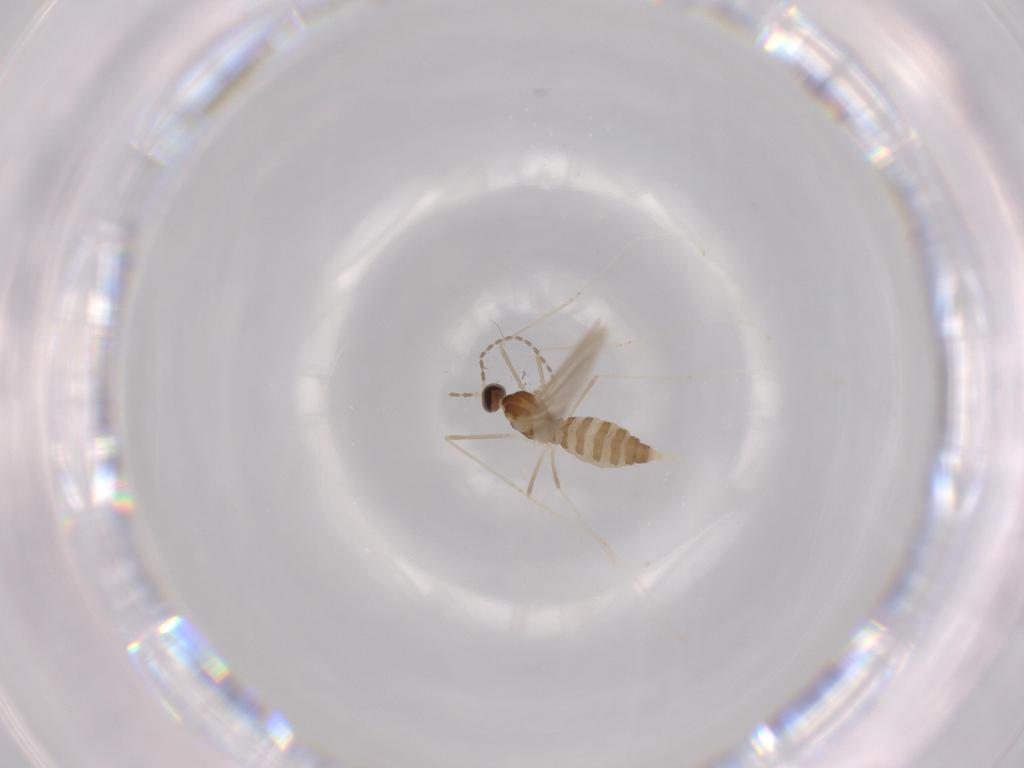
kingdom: Animalia
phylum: Arthropoda
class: Insecta
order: Diptera
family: Cecidomyiidae
